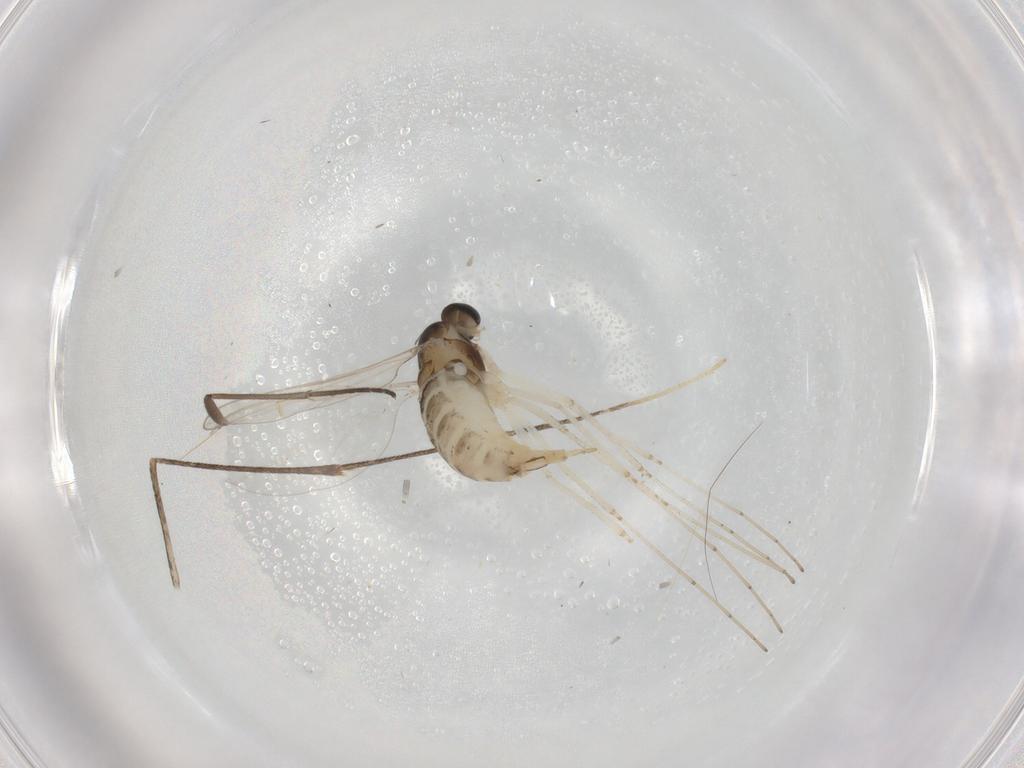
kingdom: Animalia
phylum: Arthropoda
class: Insecta
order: Diptera
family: Cecidomyiidae
